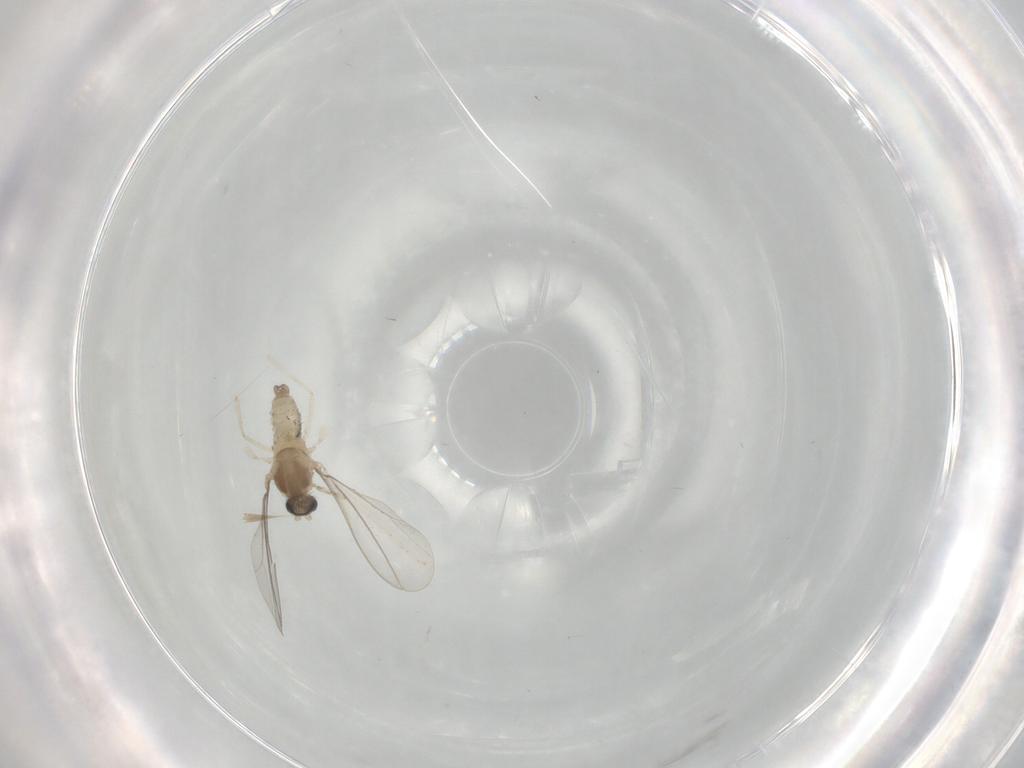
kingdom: Animalia
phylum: Arthropoda
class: Insecta
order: Diptera
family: Cecidomyiidae
